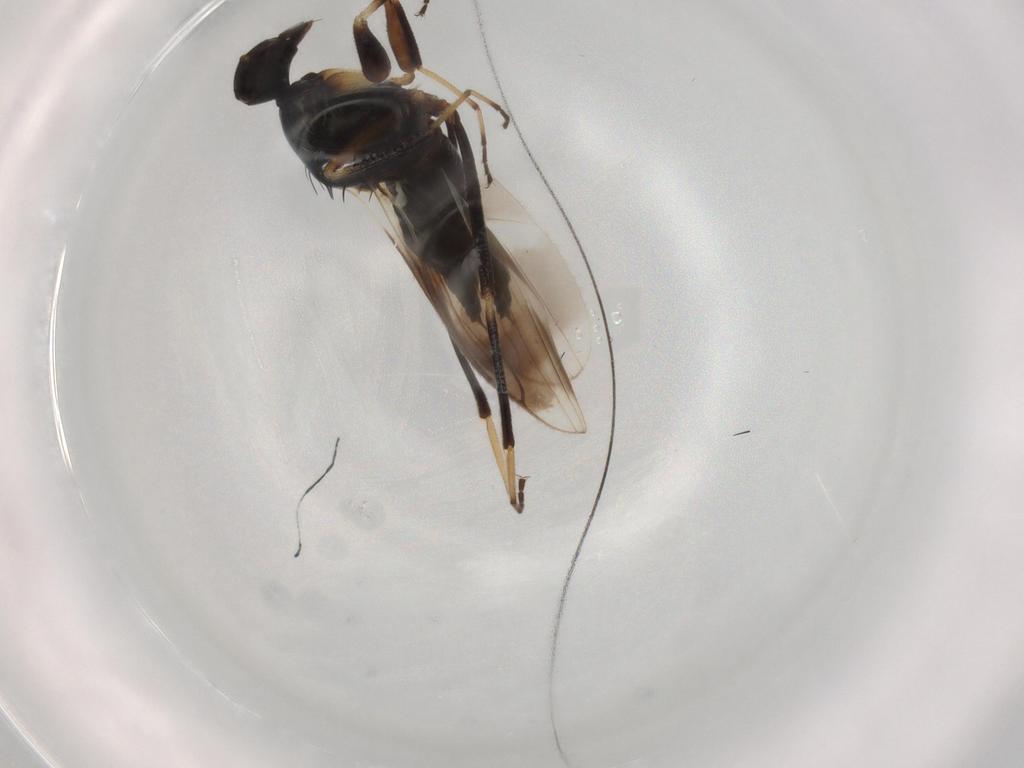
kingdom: Animalia
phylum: Arthropoda
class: Insecta
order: Diptera
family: Hybotidae
